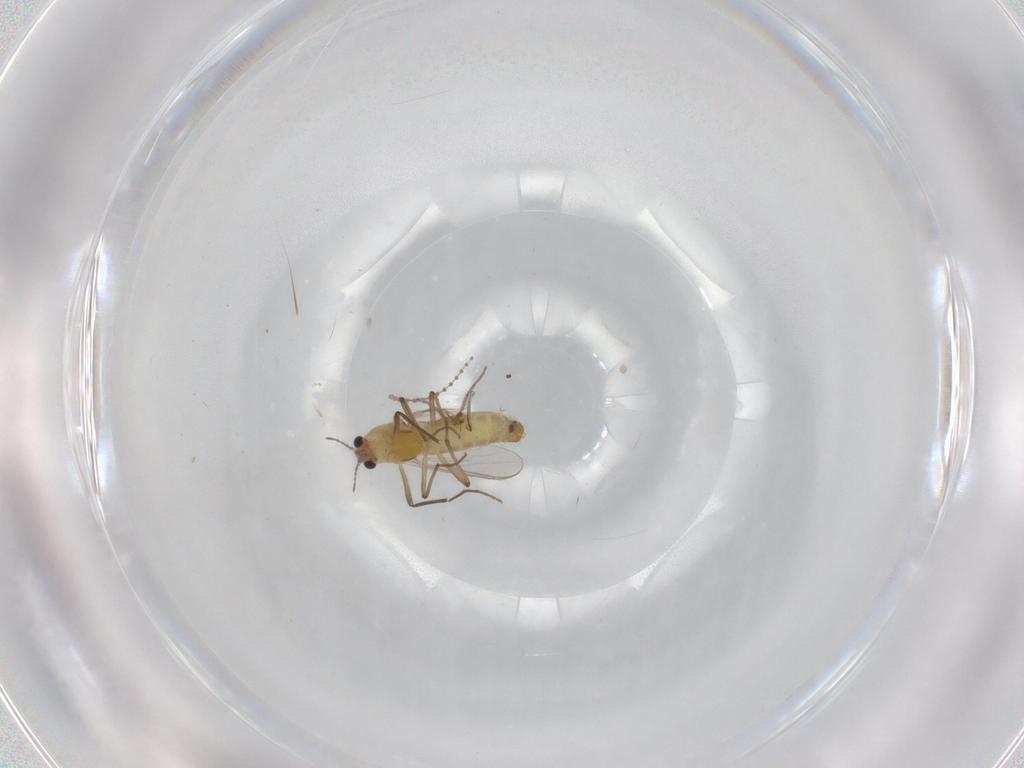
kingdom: Animalia
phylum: Arthropoda
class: Insecta
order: Diptera
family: Chironomidae
